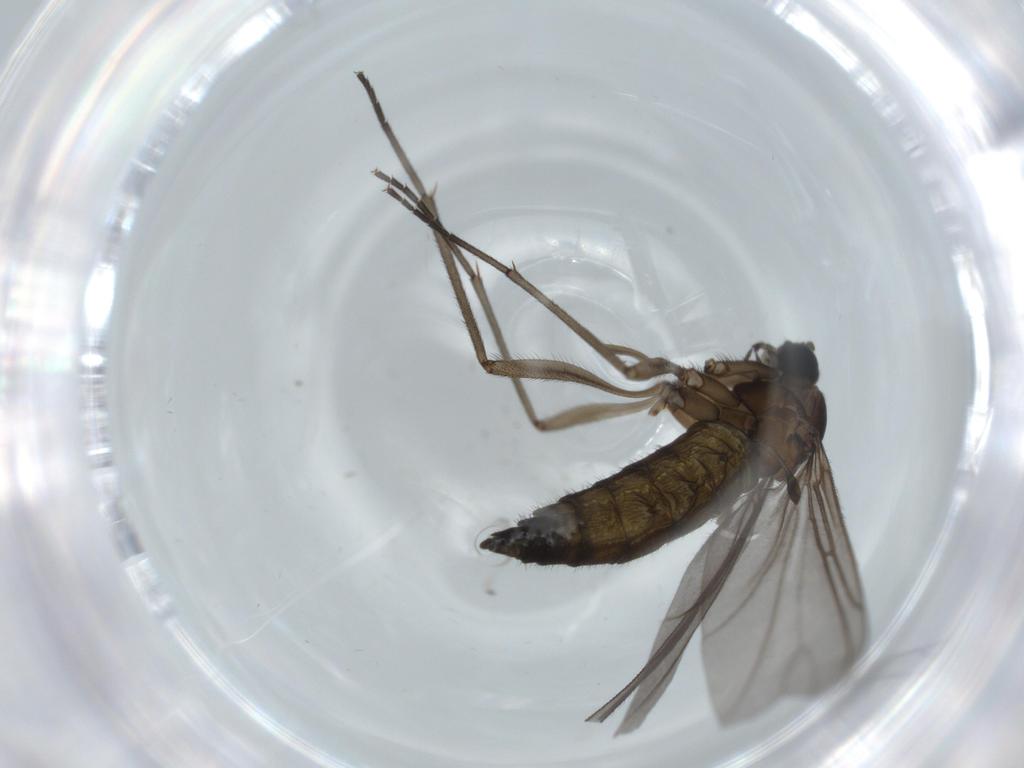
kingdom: Animalia
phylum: Arthropoda
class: Insecta
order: Diptera
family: Sciaridae
